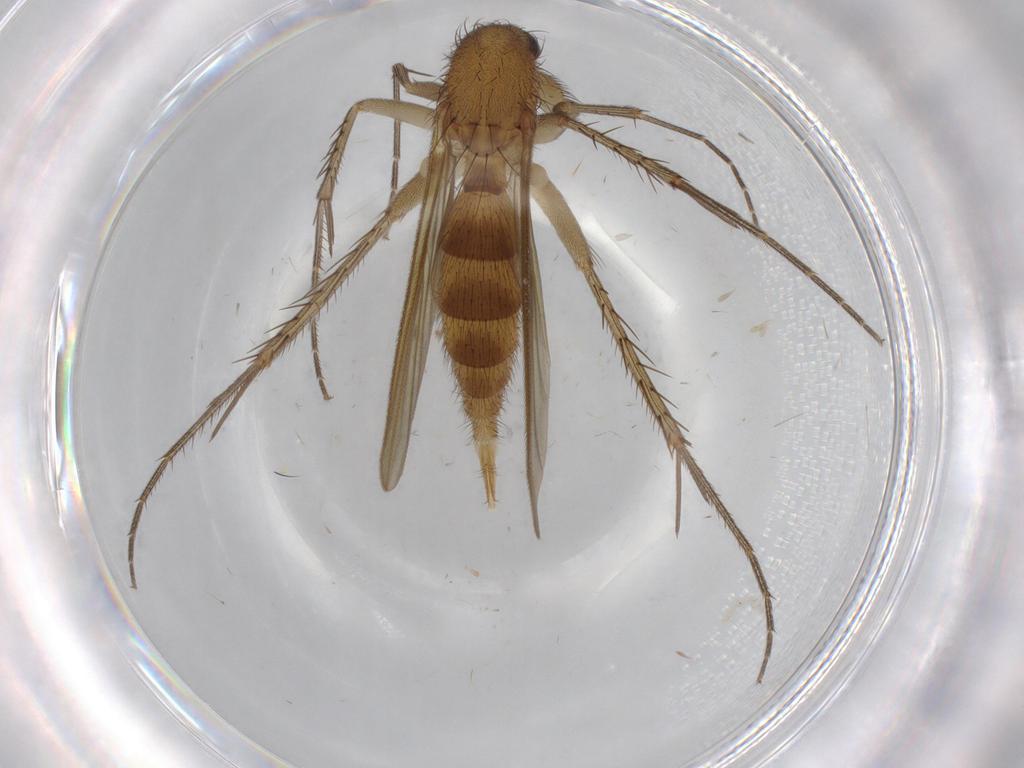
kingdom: Animalia
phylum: Arthropoda
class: Insecta
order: Diptera
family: Mycetophilidae
